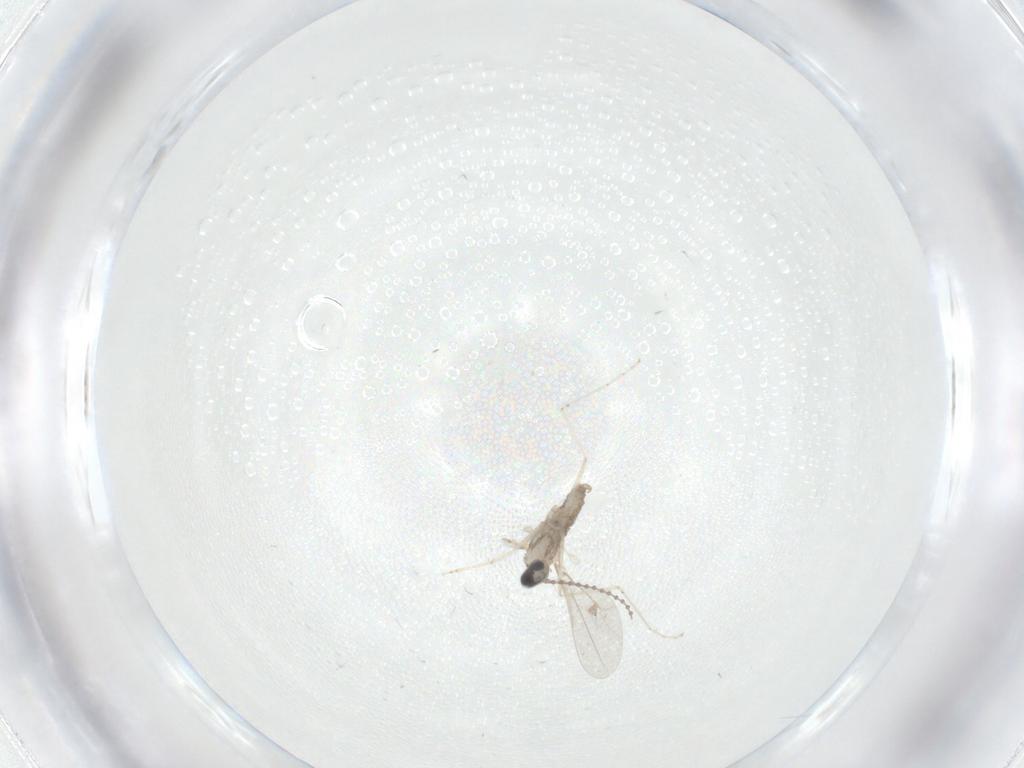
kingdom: Animalia
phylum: Arthropoda
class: Insecta
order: Diptera
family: Cecidomyiidae
